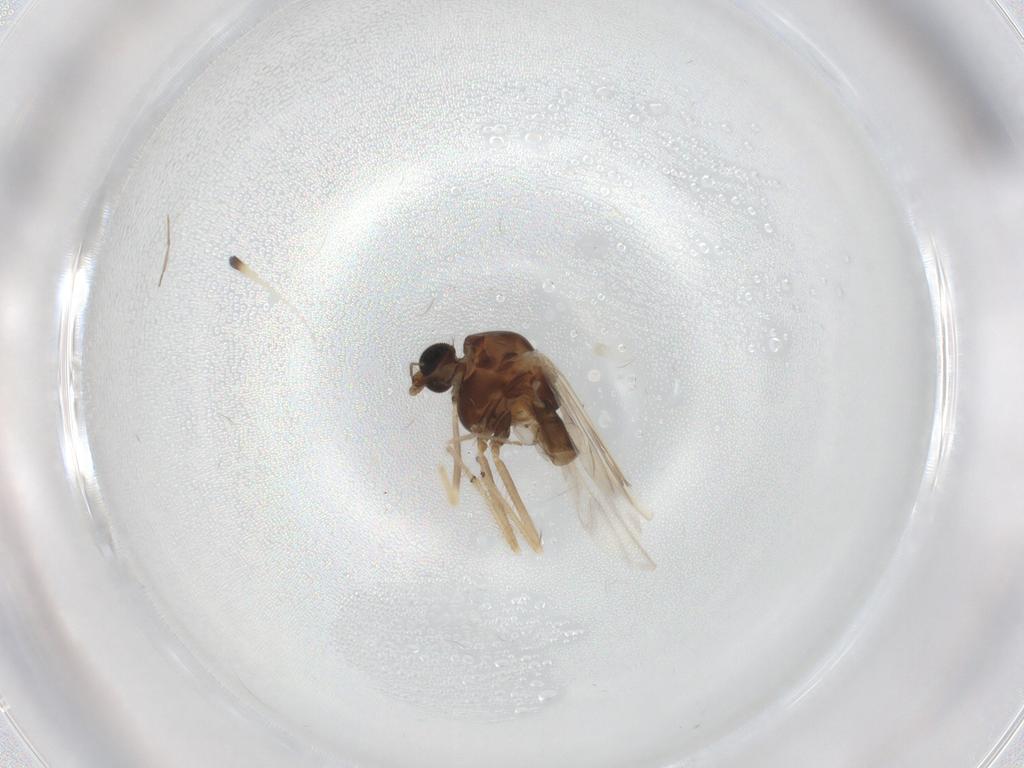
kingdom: Animalia
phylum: Arthropoda
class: Insecta
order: Diptera
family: Chironomidae
